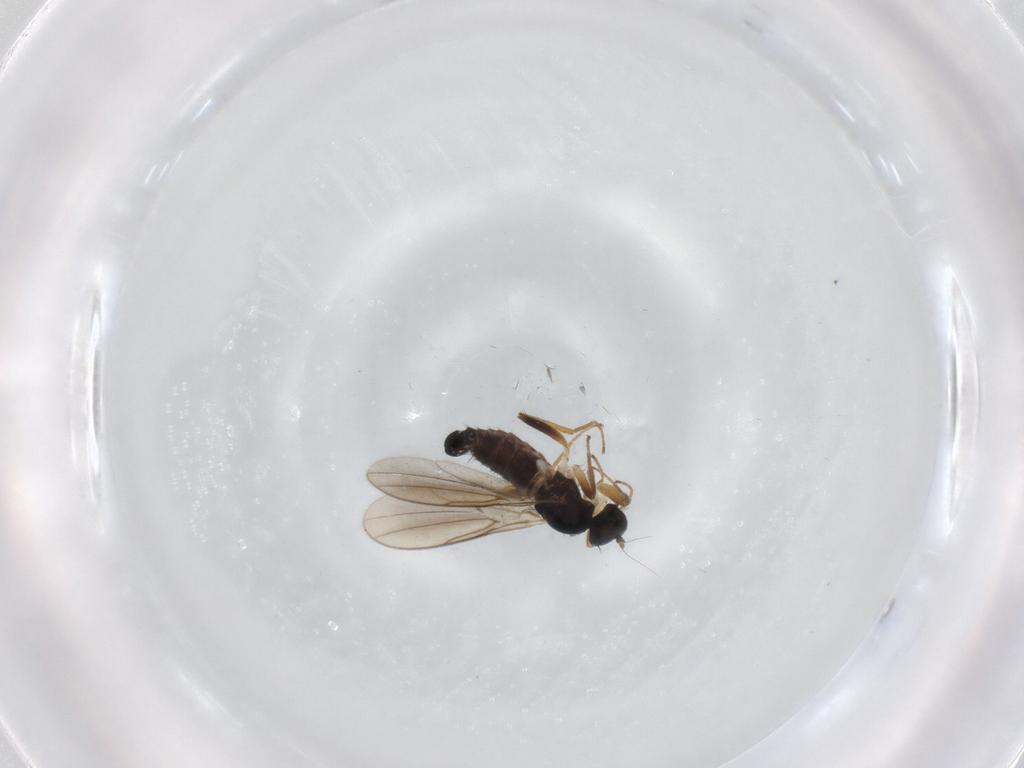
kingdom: Animalia
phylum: Arthropoda
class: Insecta
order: Diptera
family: Hybotidae
